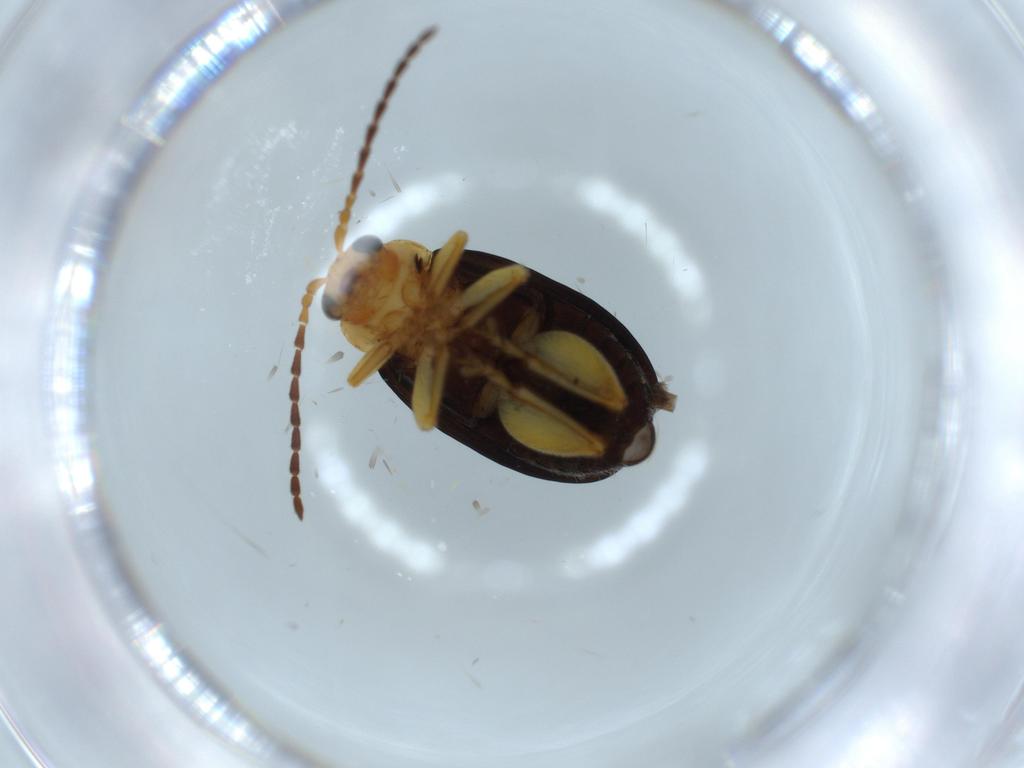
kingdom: Animalia
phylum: Arthropoda
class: Insecta
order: Coleoptera
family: Chrysomelidae
